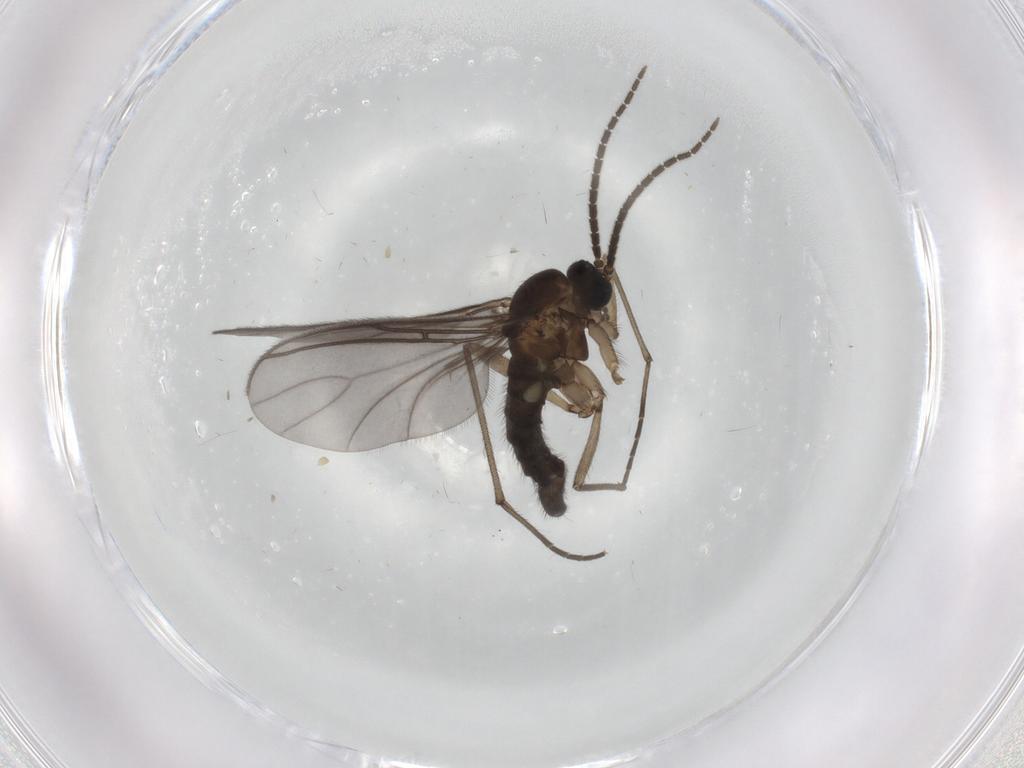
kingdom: Animalia
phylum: Arthropoda
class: Insecta
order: Diptera
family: Sciaridae
